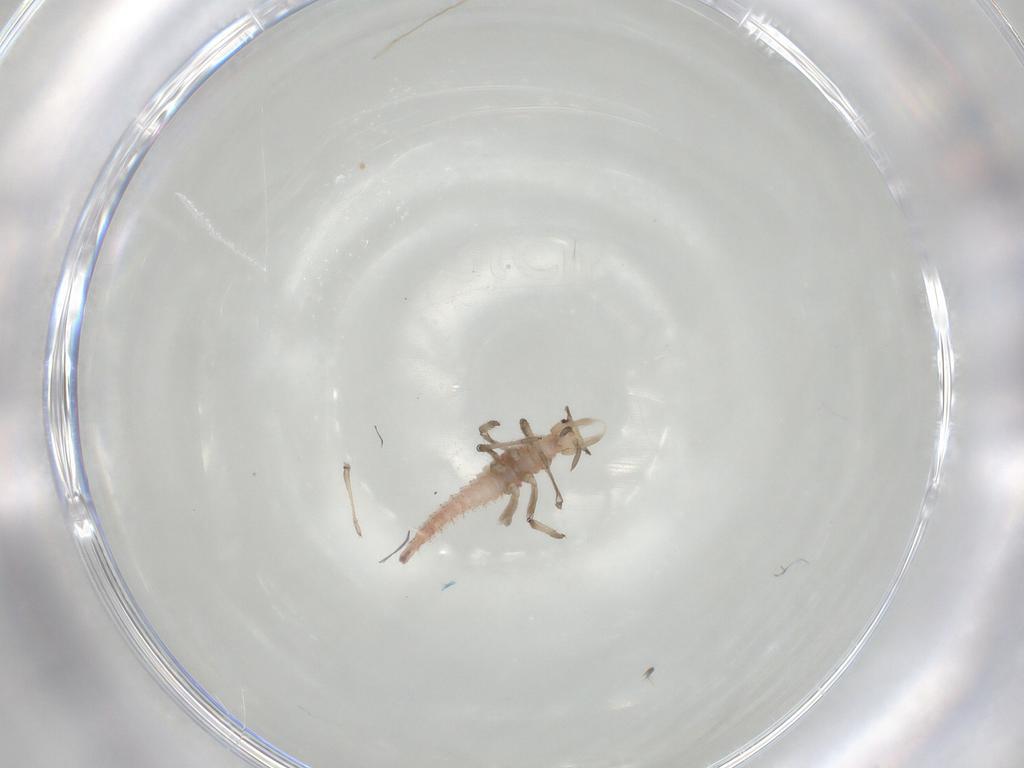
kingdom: Animalia
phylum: Arthropoda
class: Insecta
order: Neuroptera
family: Hemerobiidae
